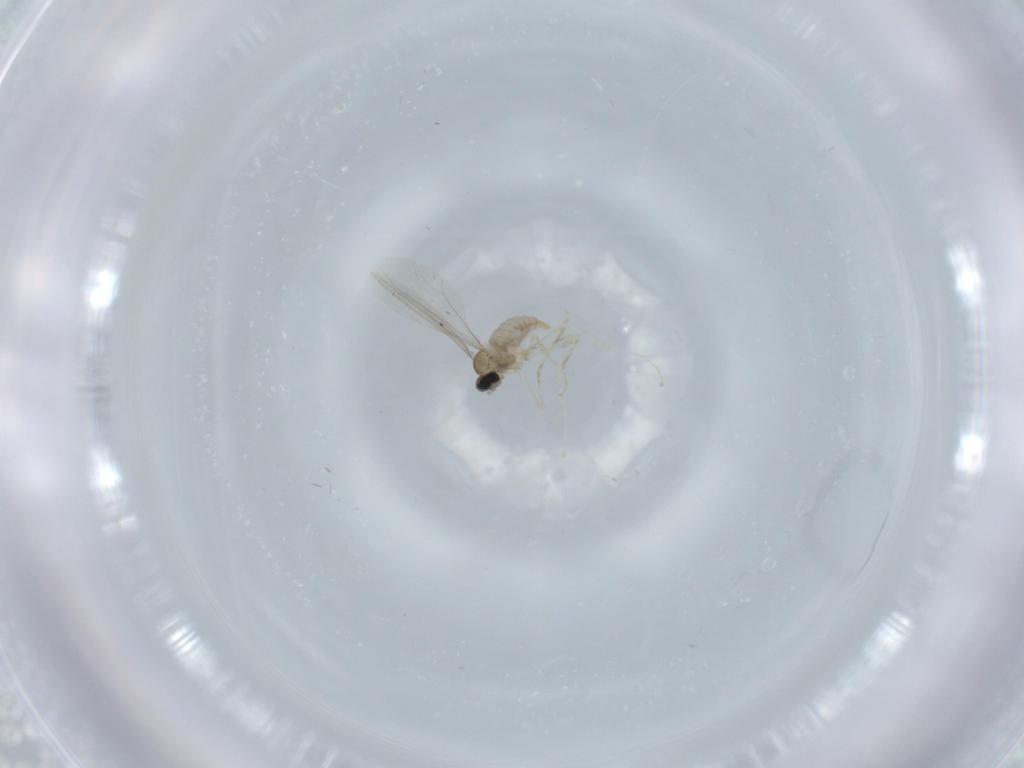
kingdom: Animalia
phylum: Arthropoda
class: Insecta
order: Diptera
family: Cecidomyiidae
